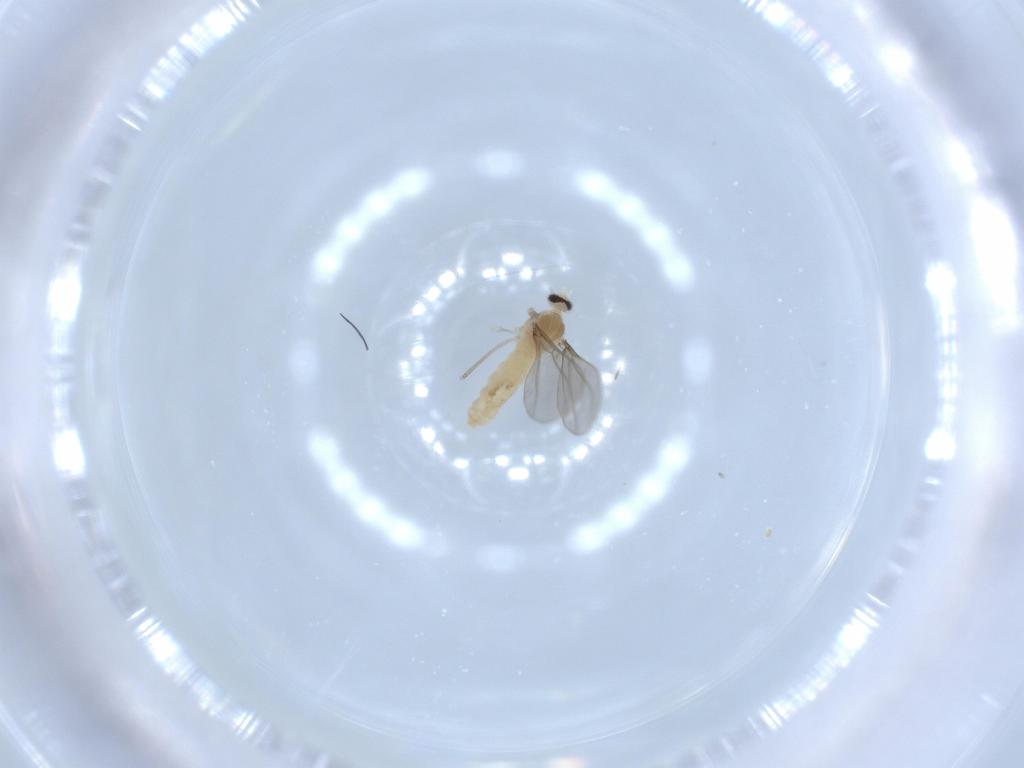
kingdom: Animalia
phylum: Arthropoda
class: Insecta
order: Diptera
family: Cecidomyiidae
